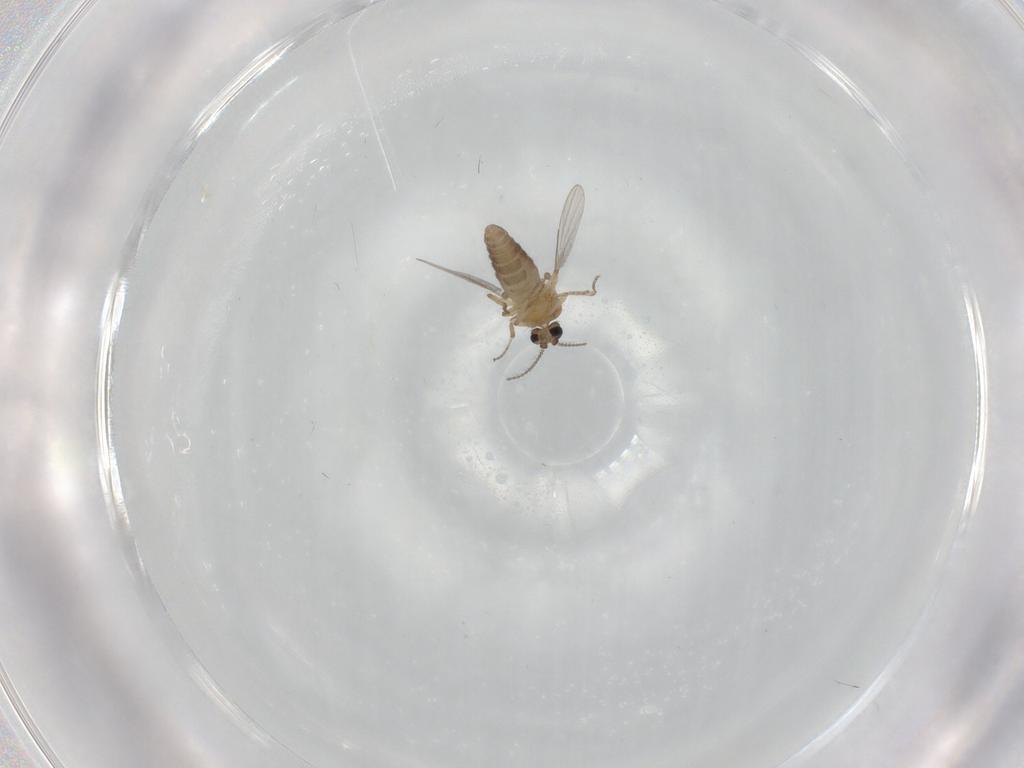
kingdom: Animalia
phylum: Arthropoda
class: Insecta
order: Diptera
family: Ceratopogonidae
